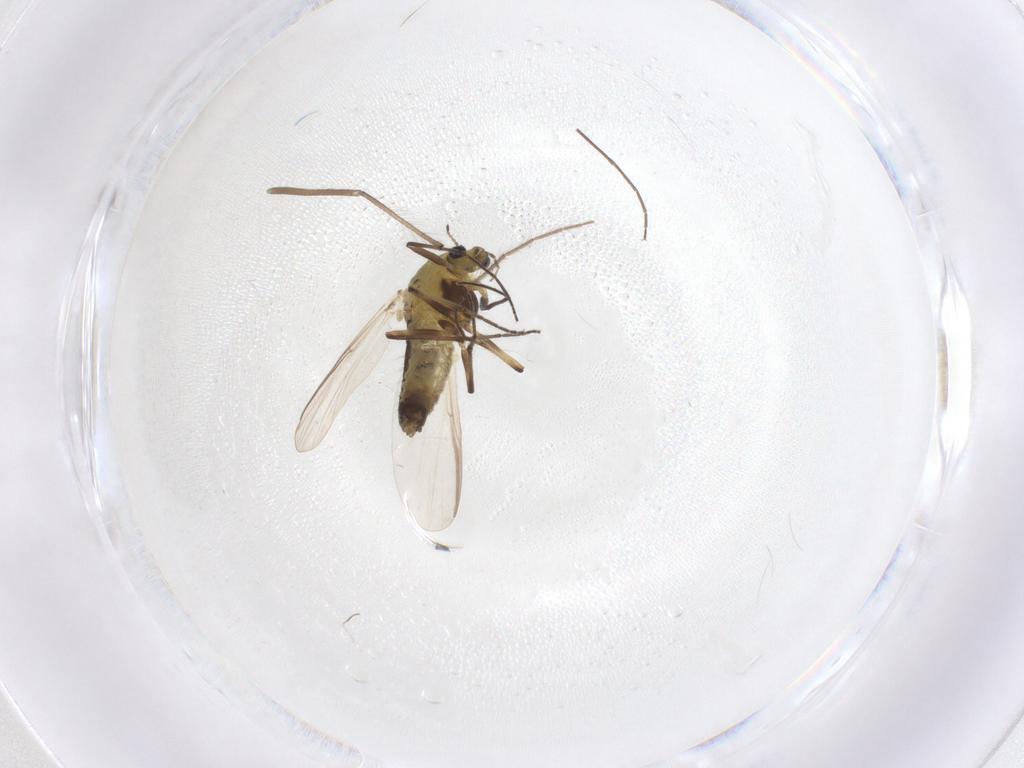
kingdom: Animalia
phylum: Arthropoda
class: Insecta
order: Diptera
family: Chironomidae
